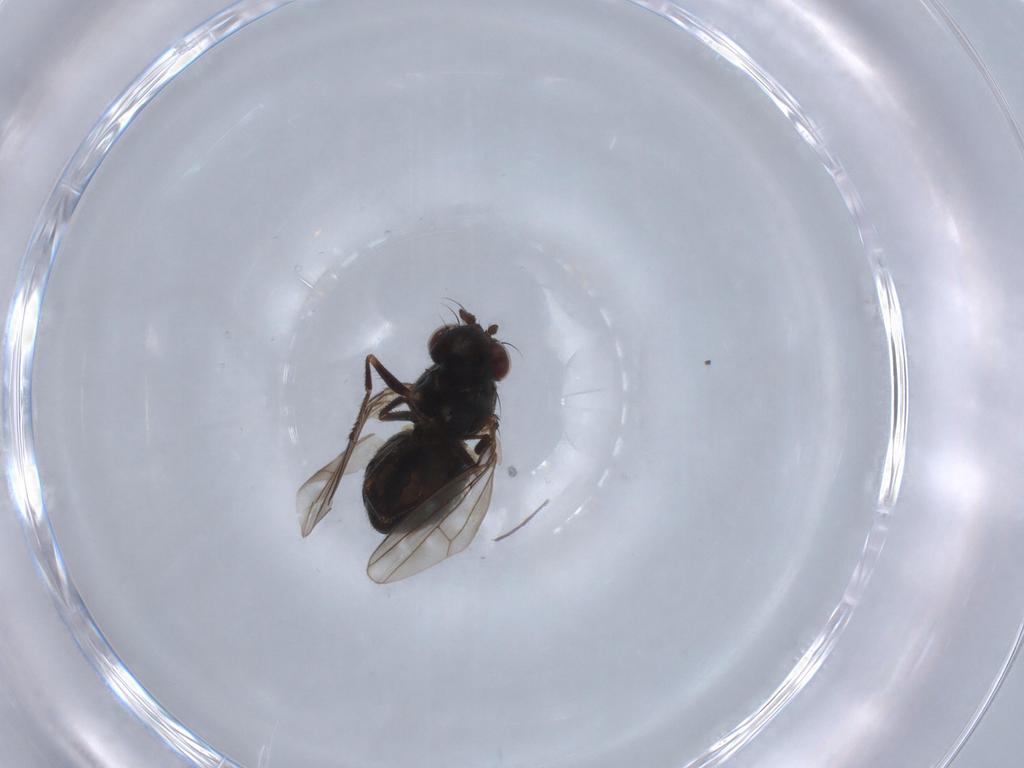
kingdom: Animalia
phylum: Arthropoda
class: Insecta
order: Diptera
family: Ephydridae
